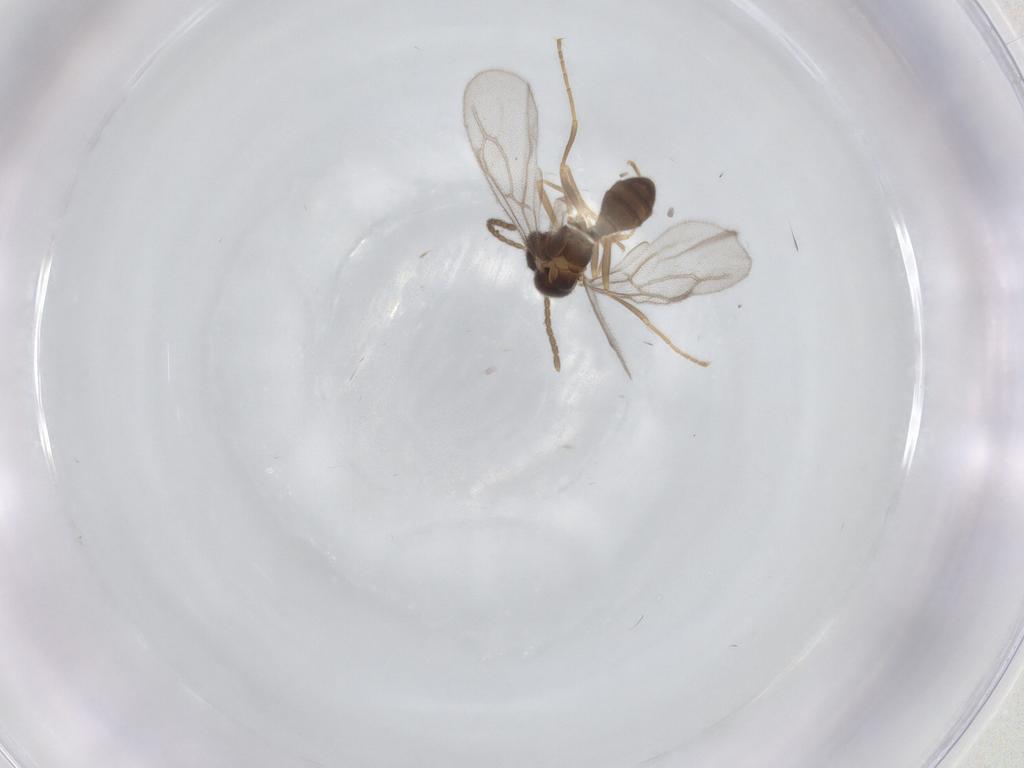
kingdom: Animalia
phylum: Arthropoda
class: Insecta
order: Hymenoptera
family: Formicidae
